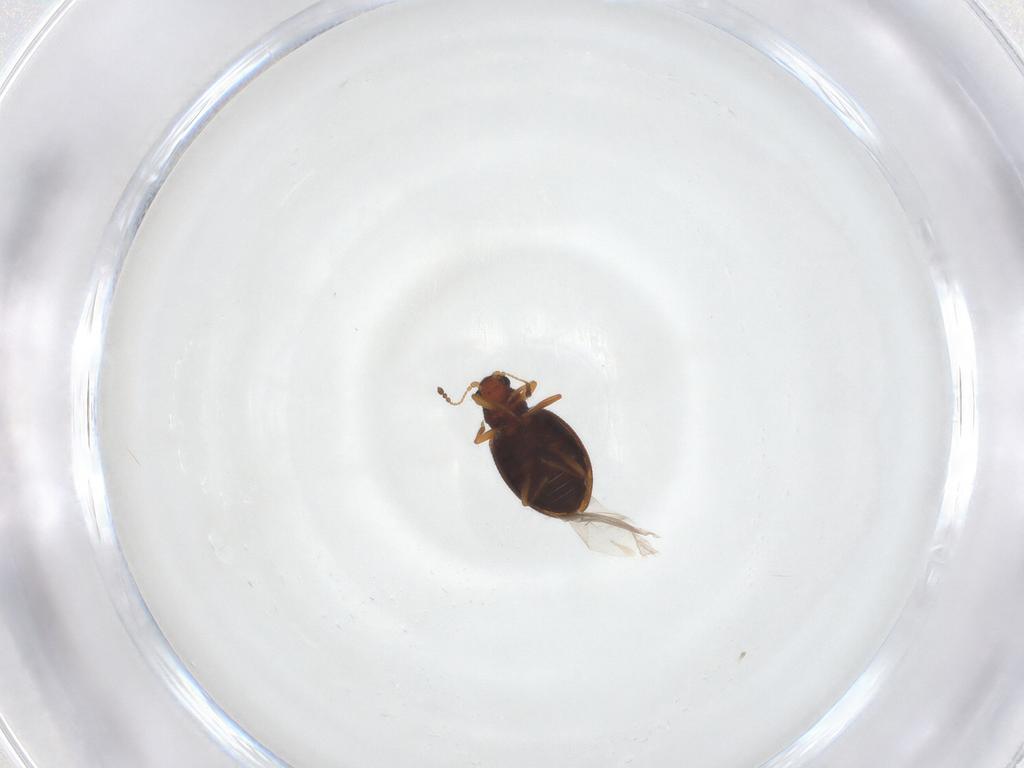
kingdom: Animalia
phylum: Arthropoda
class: Insecta
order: Coleoptera
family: Latridiidae
